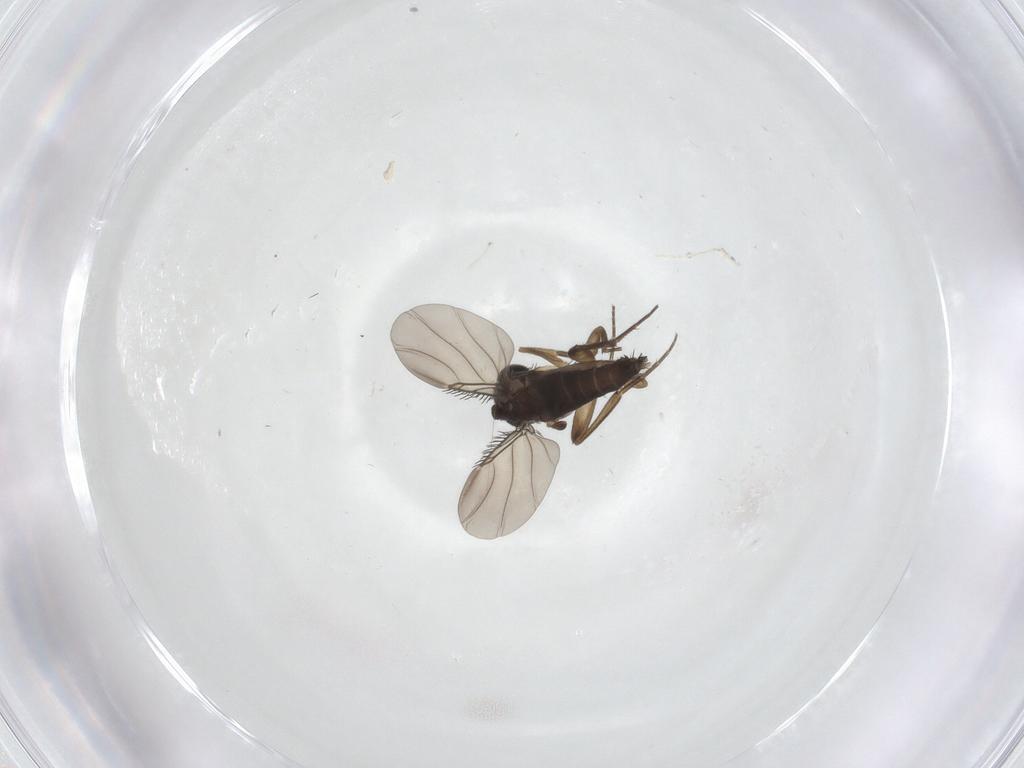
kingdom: Animalia
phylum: Arthropoda
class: Insecta
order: Diptera
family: Phoridae
